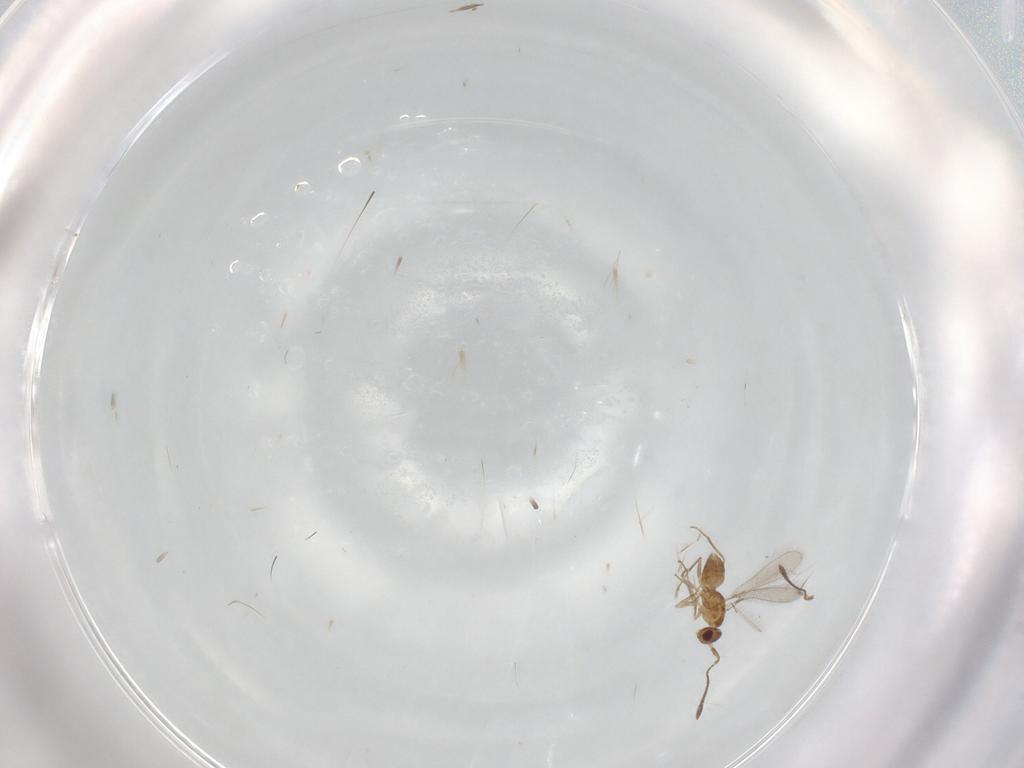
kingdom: Animalia
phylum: Arthropoda
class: Insecta
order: Hymenoptera
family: Mymaridae
